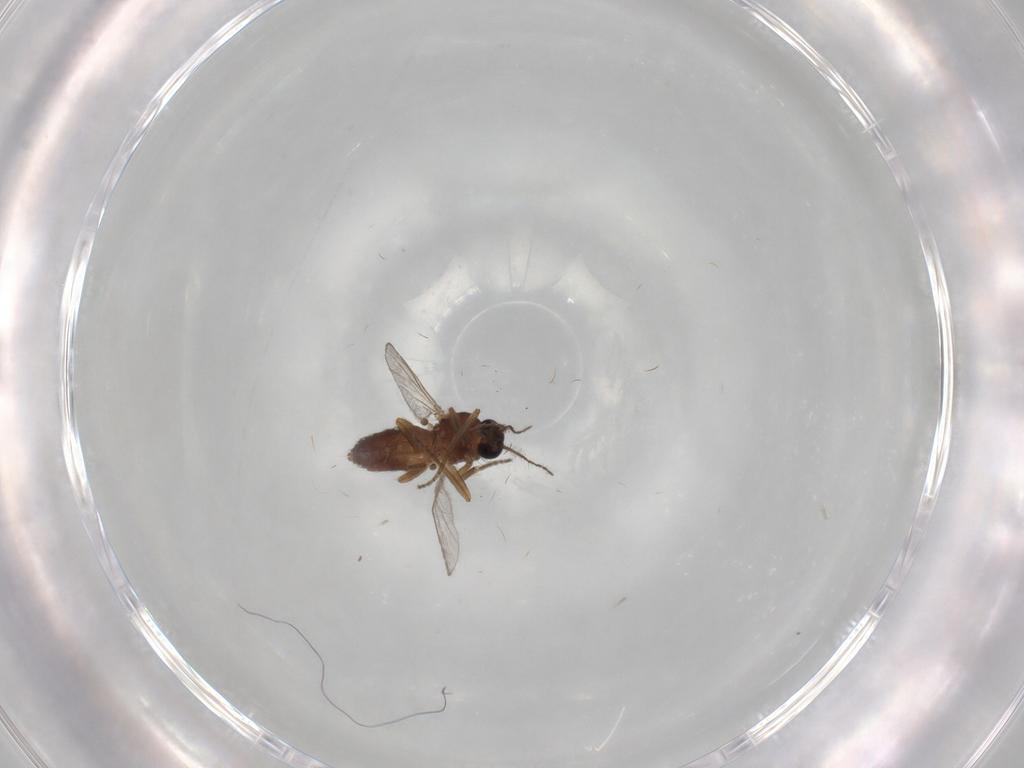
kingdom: Animalia
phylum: Arthropoda
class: Insecta
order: Diptera
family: Ceratopogonidae
